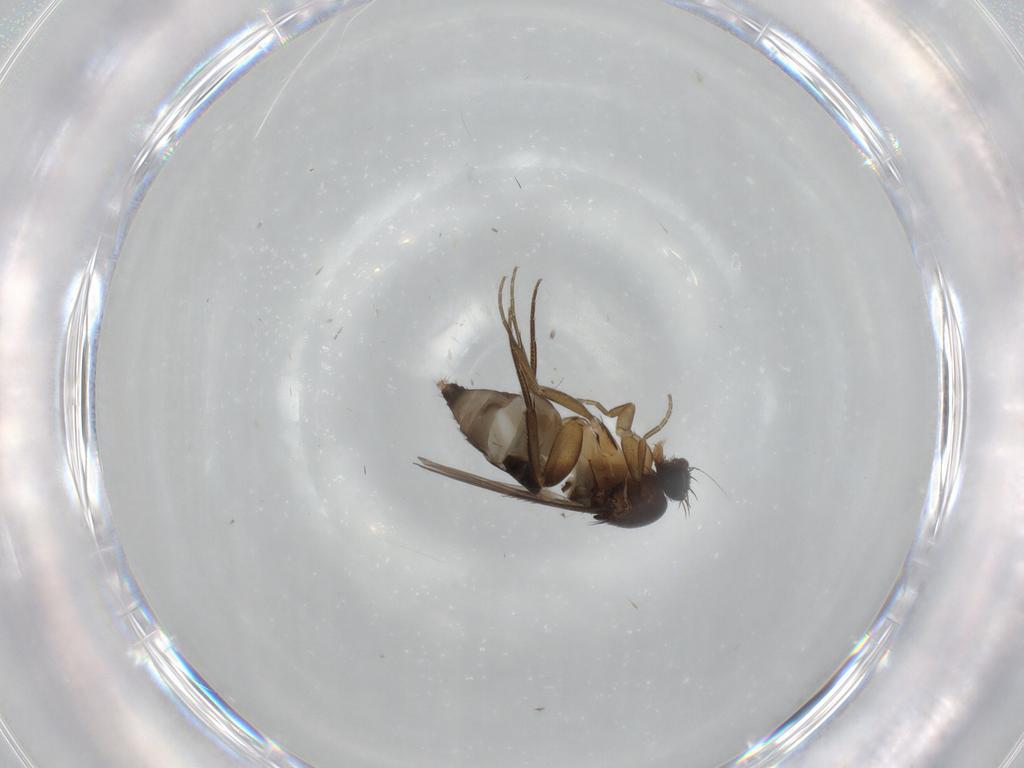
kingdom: Animalia
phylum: Arthropoda
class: Insecta
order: Diptera
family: Phoridae
